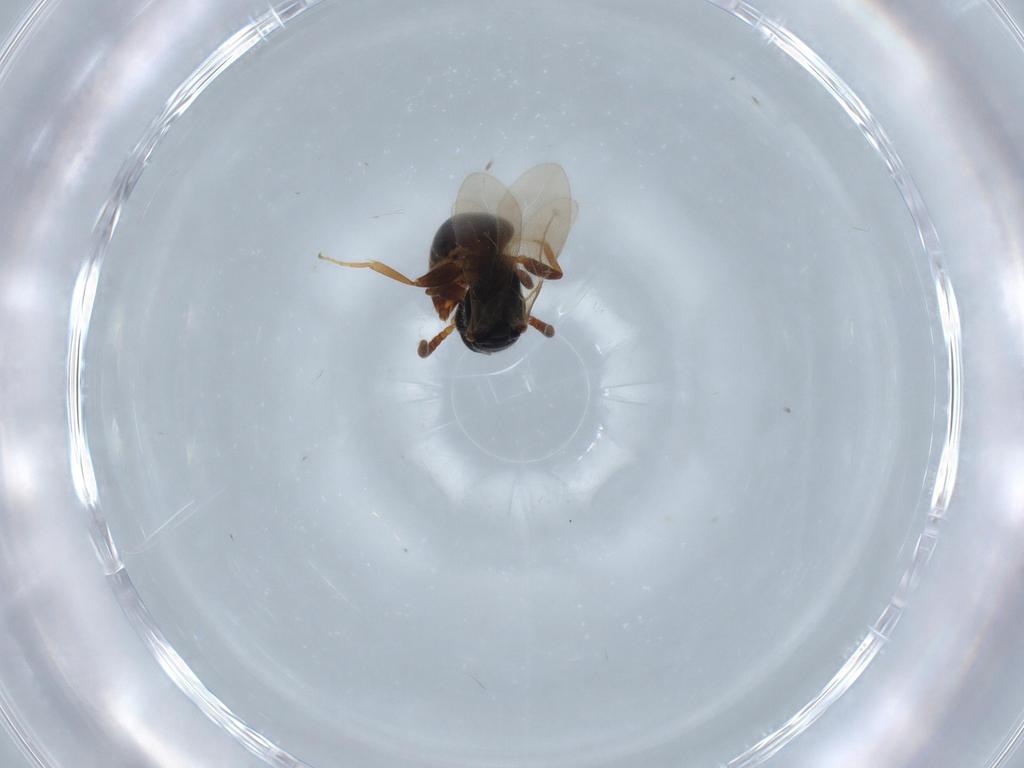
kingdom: Animalia
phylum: Arthropoda
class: Insecta
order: Hymenoptera
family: Bethylidae
